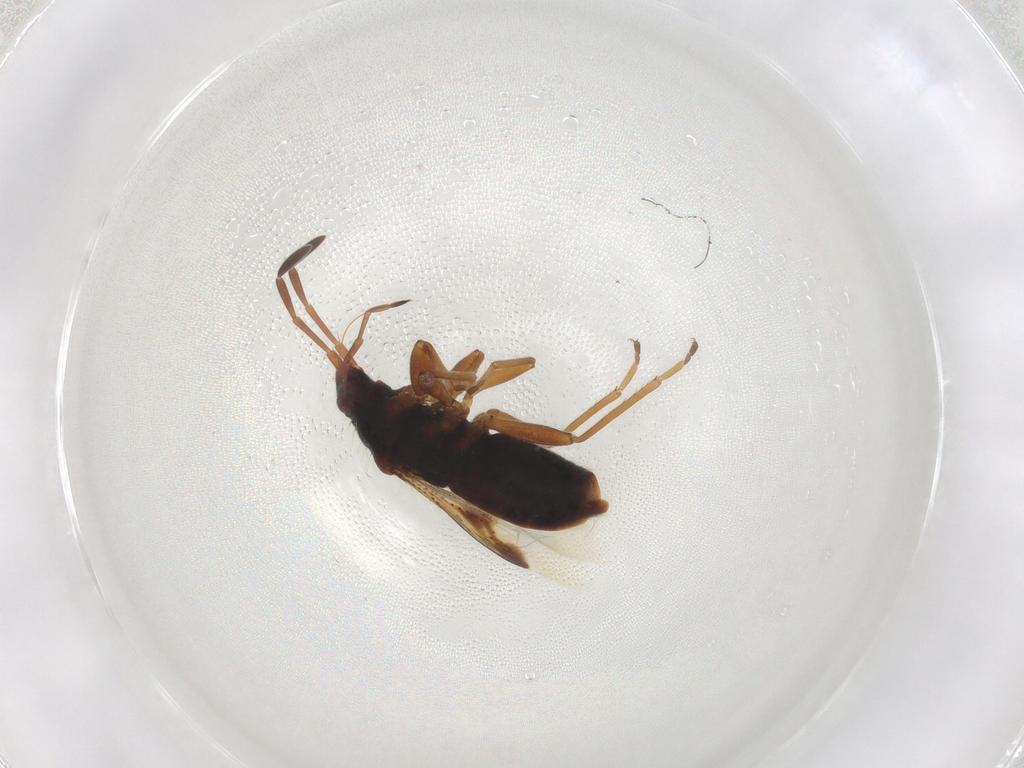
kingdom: Animalia
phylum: Arthropoda
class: Insecta
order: Hemiptera
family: Rhyparochromidae
